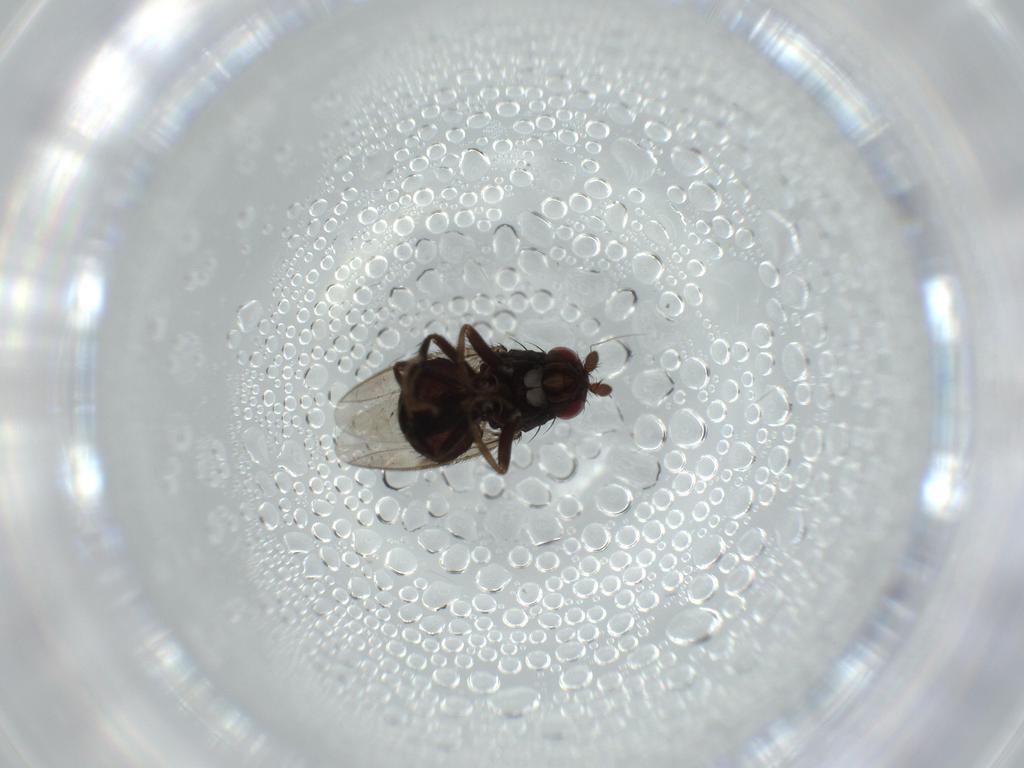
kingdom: Animalia
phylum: Arthropoda
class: Insecta
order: Diptera
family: Sphaeroceridae
